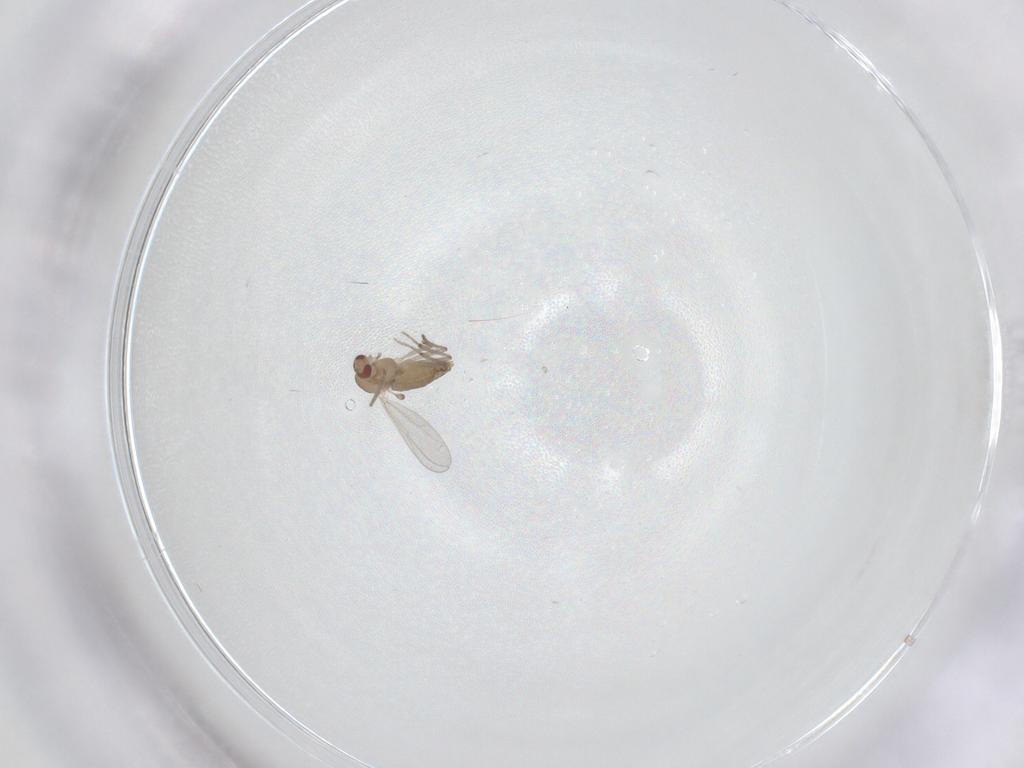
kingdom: Animalia
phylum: Arthropoda
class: Insecta
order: Diptera
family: Chironomidae
